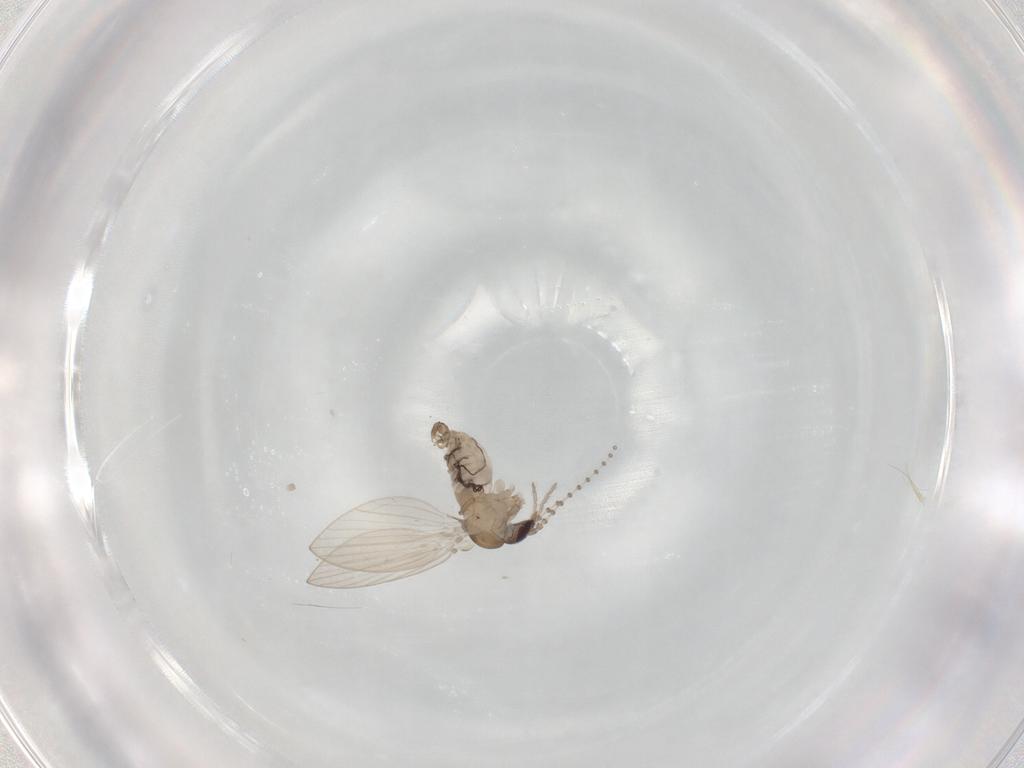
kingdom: Animalia
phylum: Arthropoda
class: Insecta
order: Diptera
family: Psychodidae
